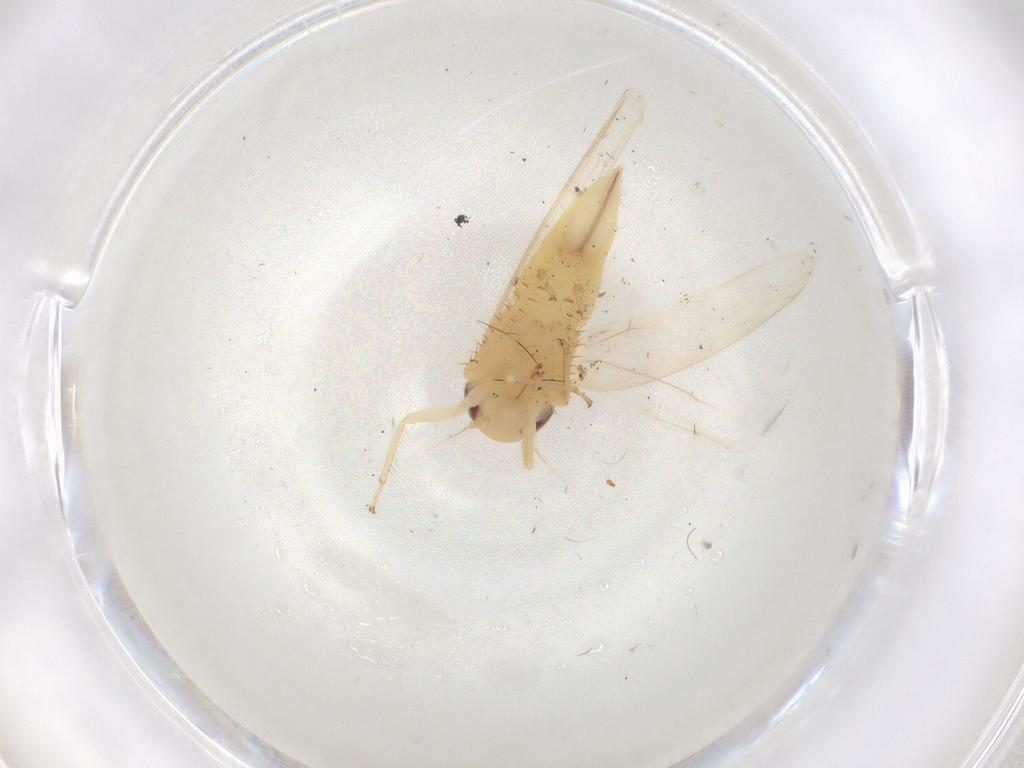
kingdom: Animalia
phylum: Arthropoda
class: Insecta
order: Hemiptera
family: Cicadellidae
